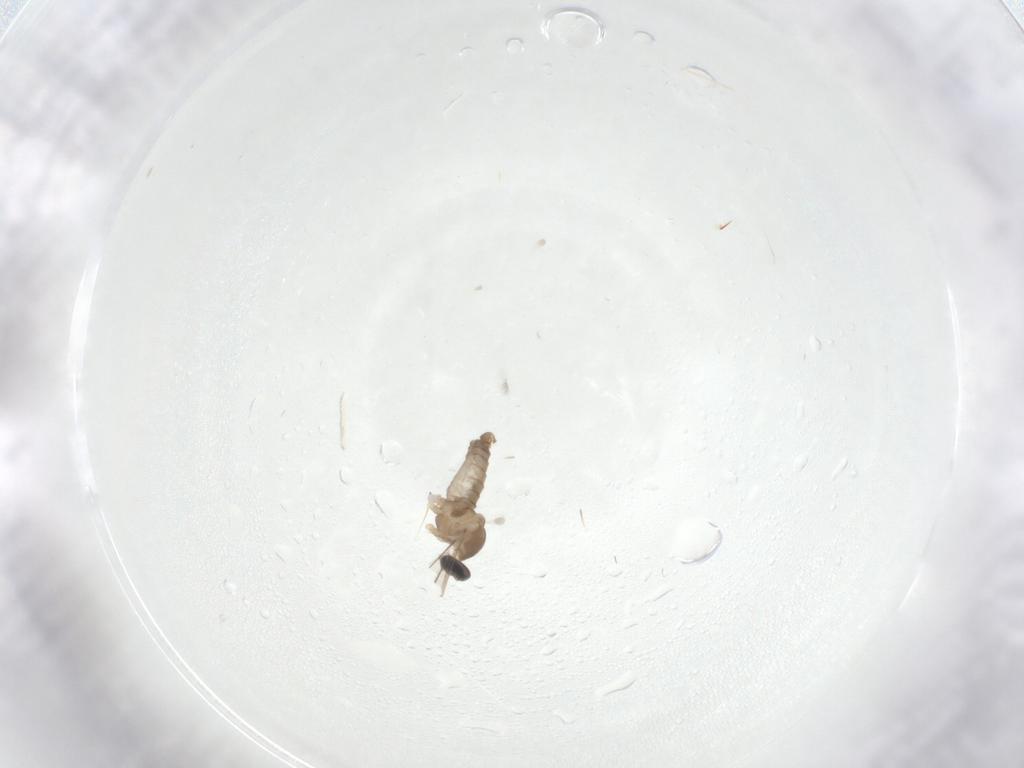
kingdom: Animalia
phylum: Arthropoda
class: Insecta
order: Diptera
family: Cecidomyiidae
